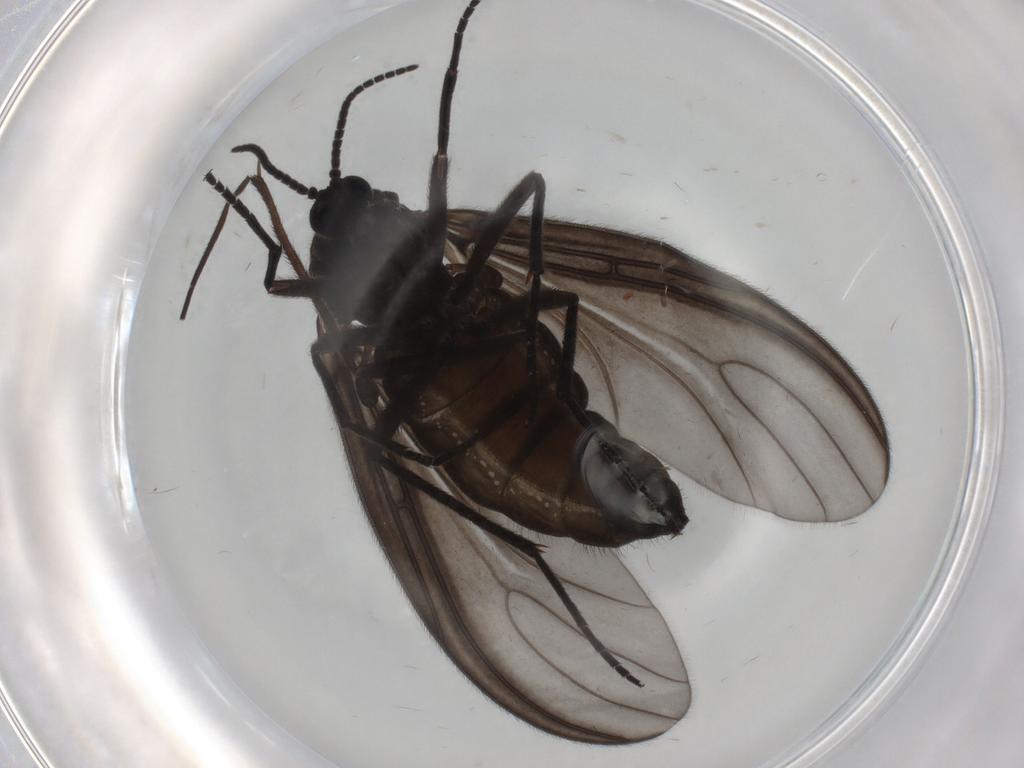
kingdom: Animalia
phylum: Arthropoda
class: Insecta
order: Diptera
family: Sciaridae
